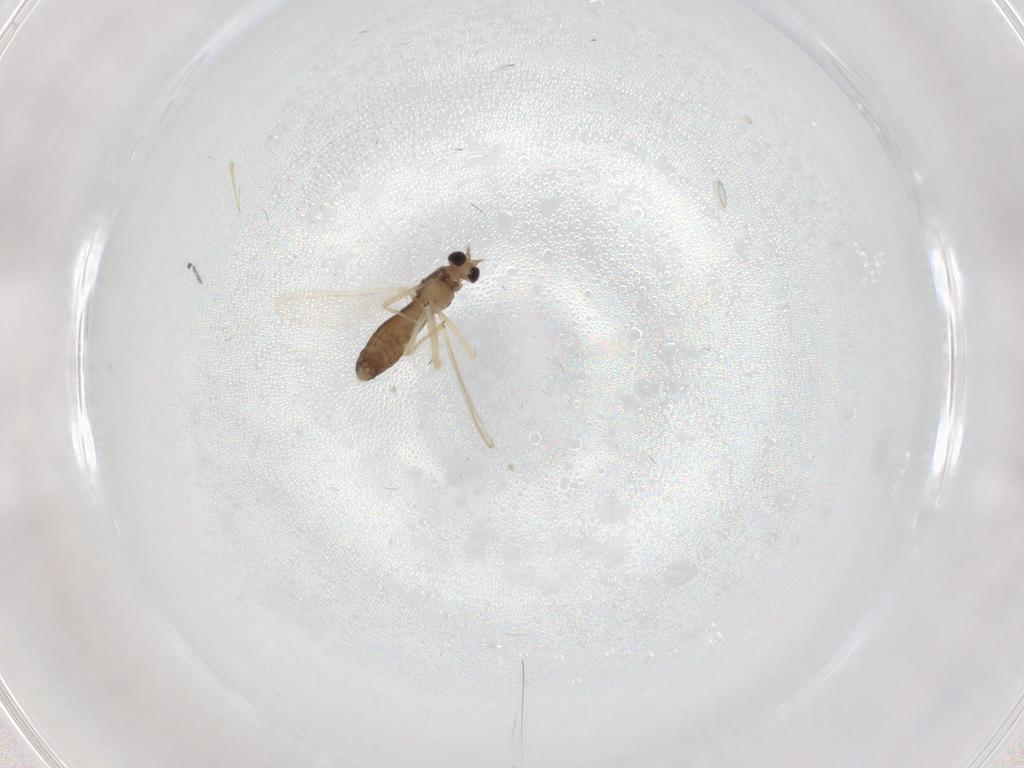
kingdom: Animalia
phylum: Arthropoda
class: Insecta
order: Diptera
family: Chironomidae
